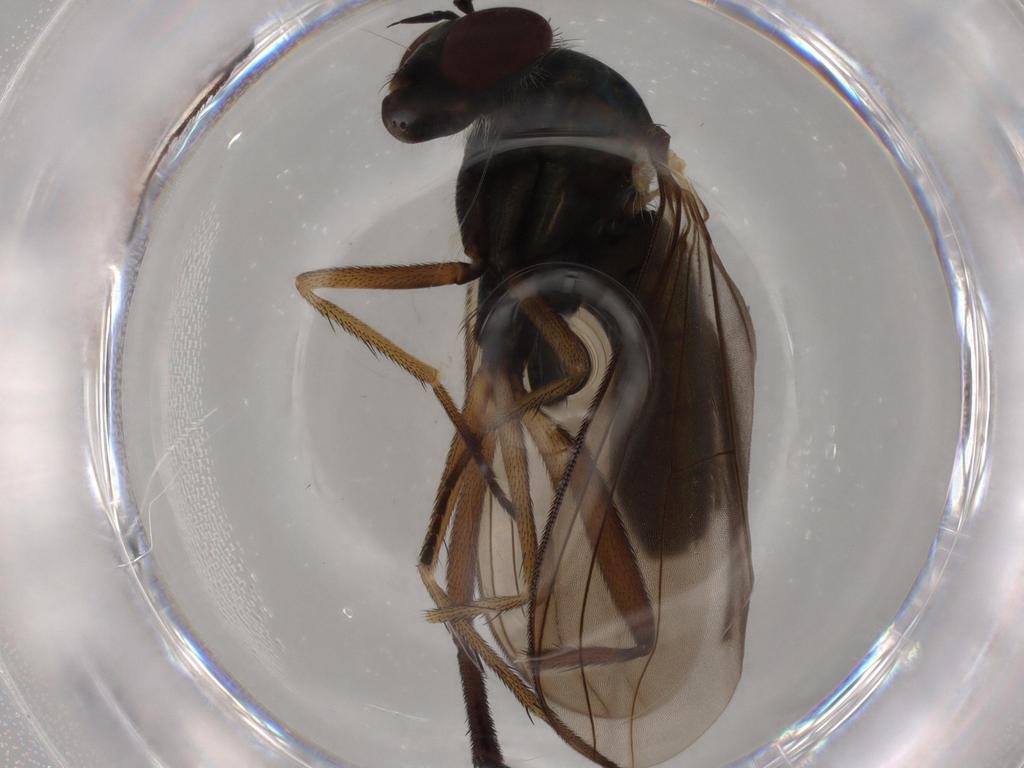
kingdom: Animalia
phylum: Arthropoda
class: Insecta
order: Diptera
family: Dolichopodidae
